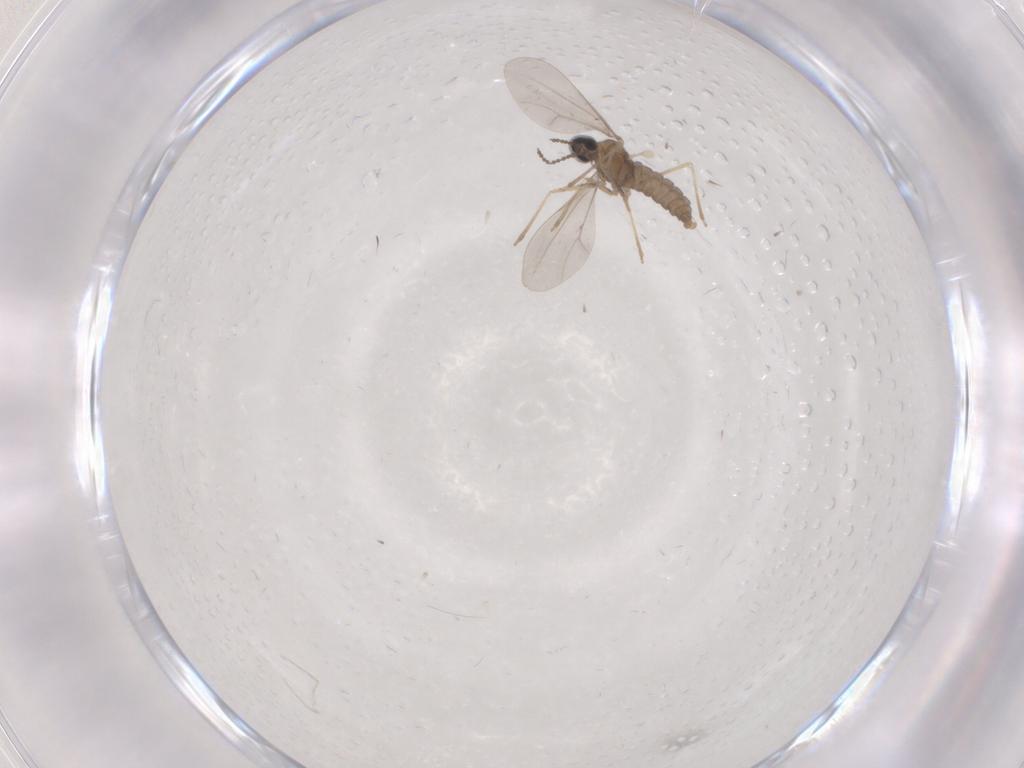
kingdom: Animalia
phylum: Arthropoda
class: Insecta
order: Diptera
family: Cecidomyiidae
